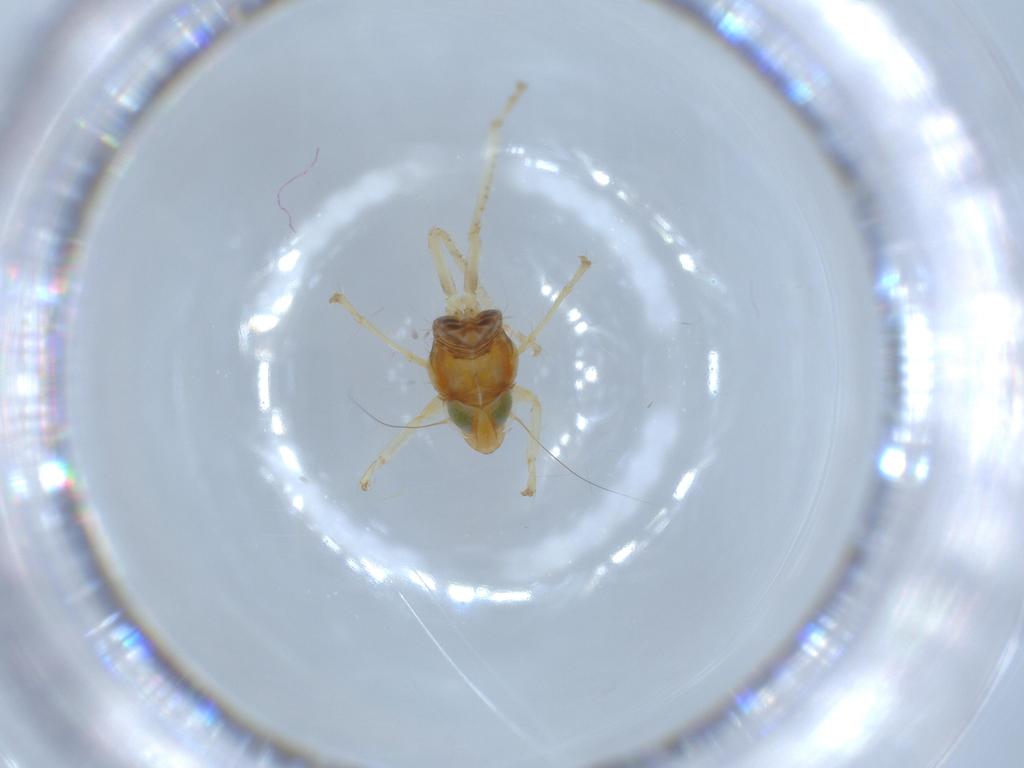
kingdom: Animalia
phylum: Arthropoda
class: Insecta
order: Hemiptera
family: Cicadellidae
